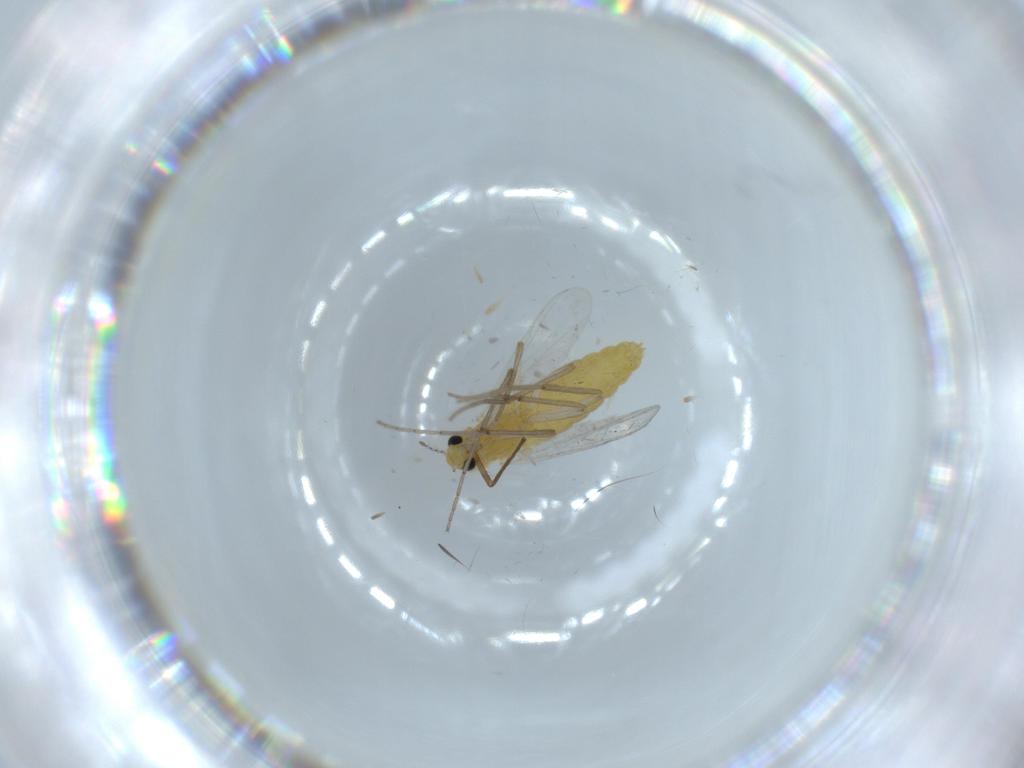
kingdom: Animalia
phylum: Arthropoda
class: Insecta
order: Diptera
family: Chironomidae
